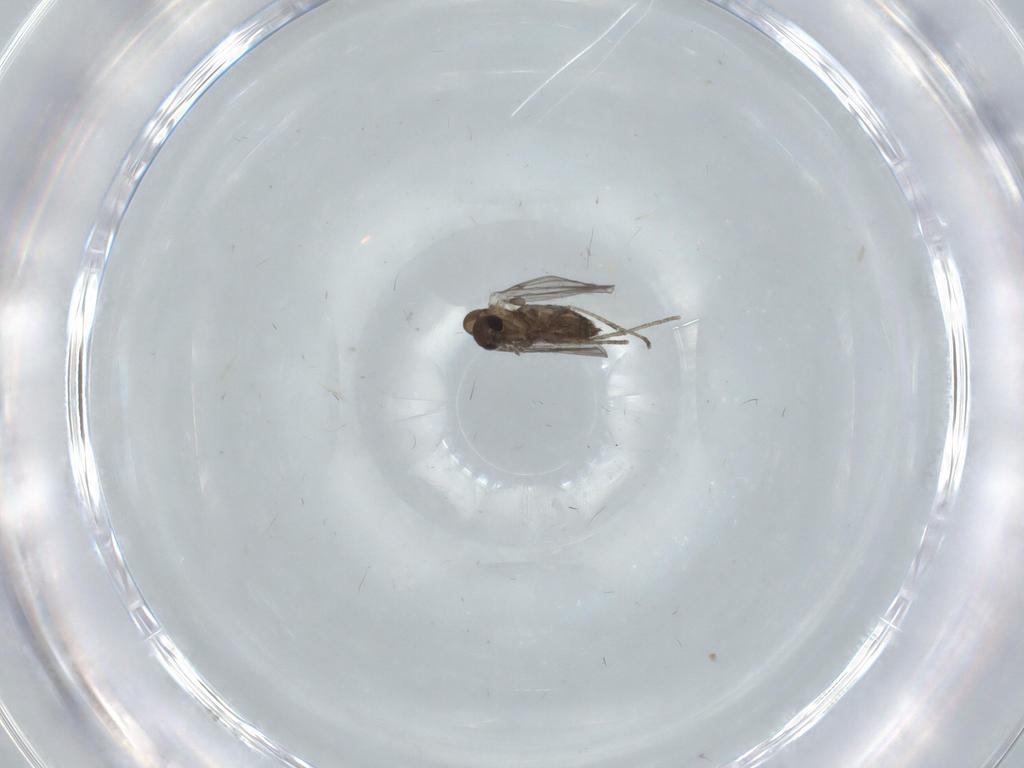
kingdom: Animalia
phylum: Arthropoda
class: Insecta
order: Diptera
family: Psychodidae
